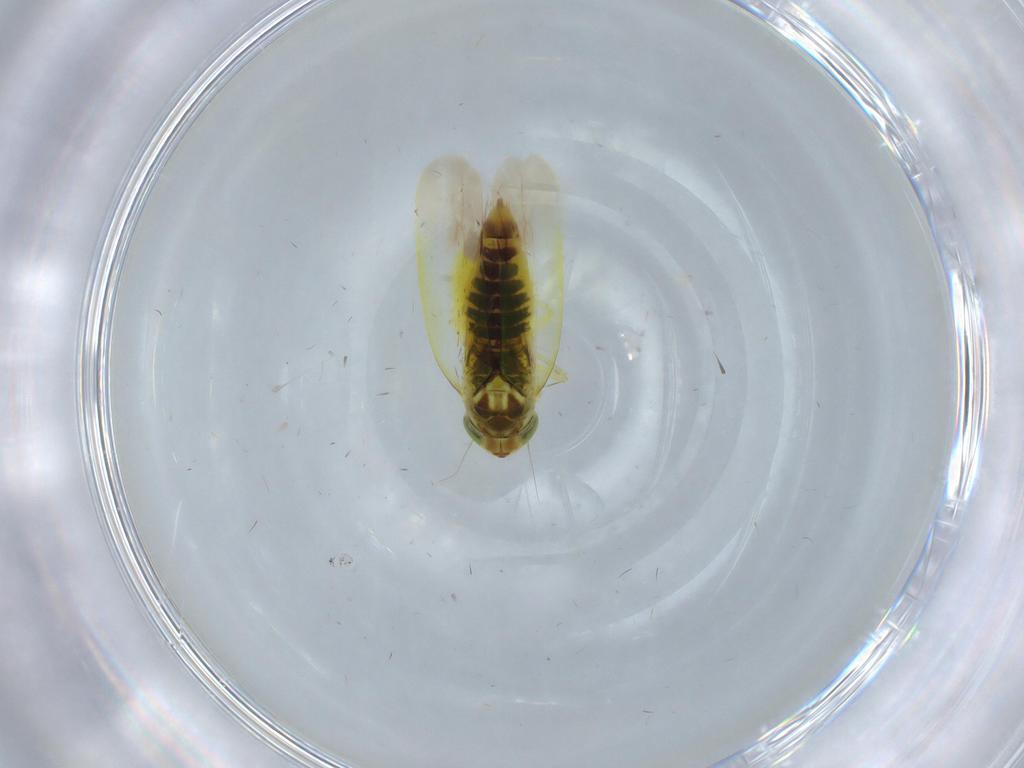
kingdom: Animalia
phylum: Arthropoda
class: Insecta
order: Hemiptera
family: Cicadellidae
